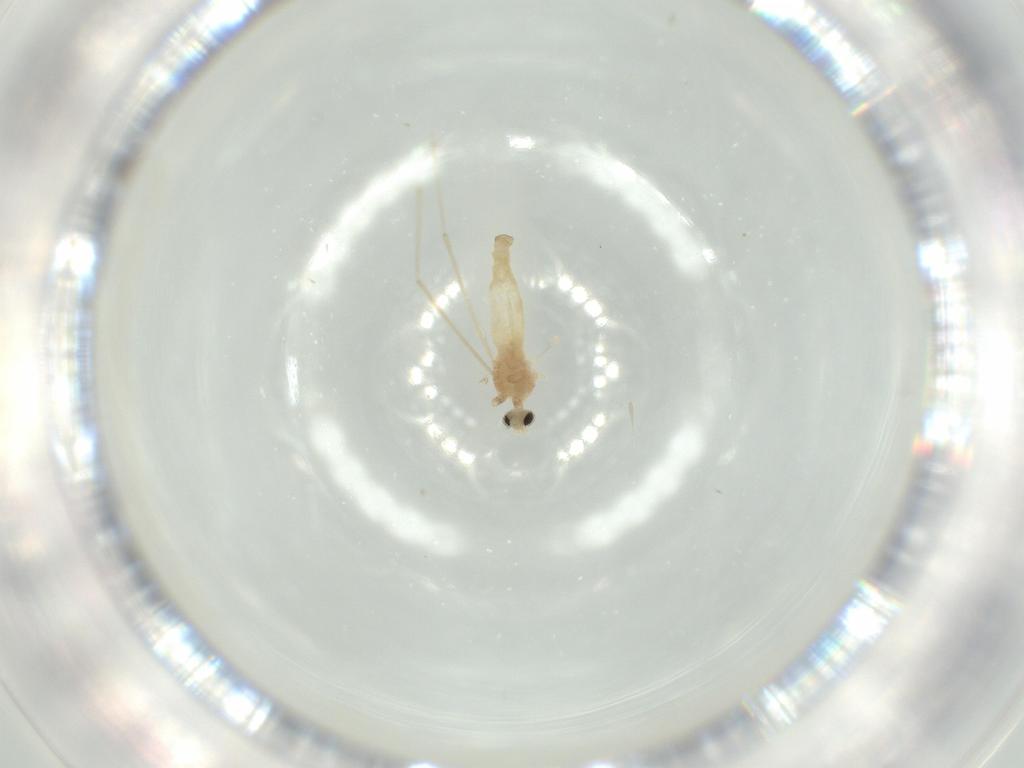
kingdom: Animalia
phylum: Arthropoda
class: Insecta
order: Diptera
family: Cecidomyiidae
